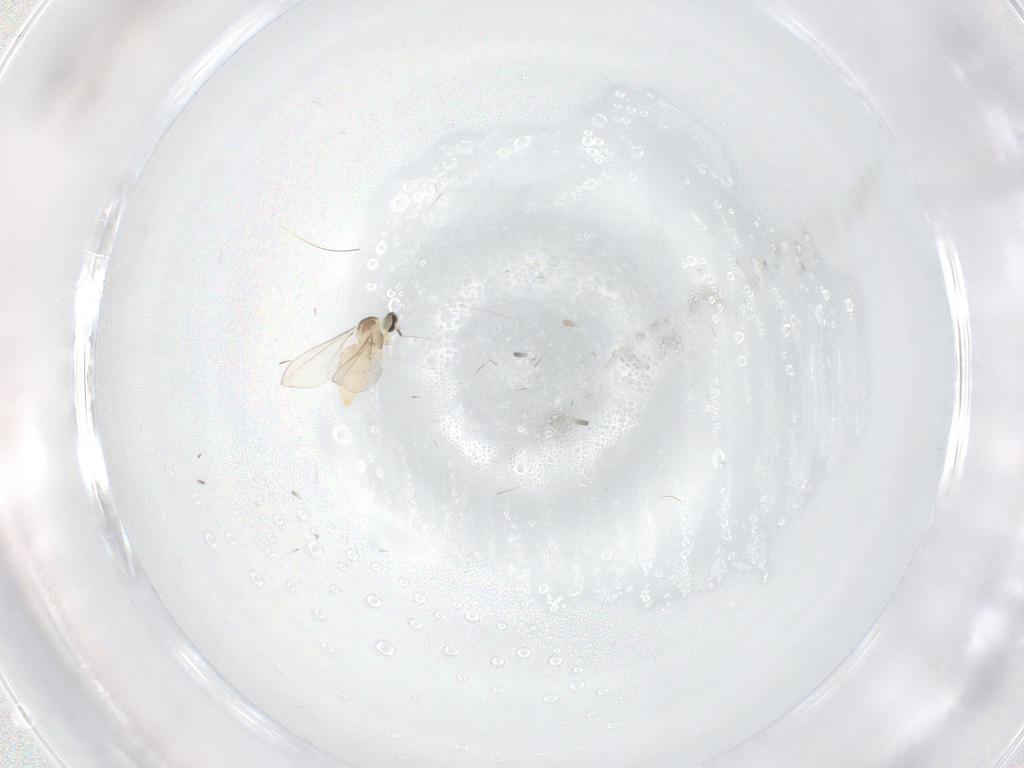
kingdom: Animalia
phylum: Arthropoda
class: Insecta
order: Diptera
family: Cecidomyiidae
